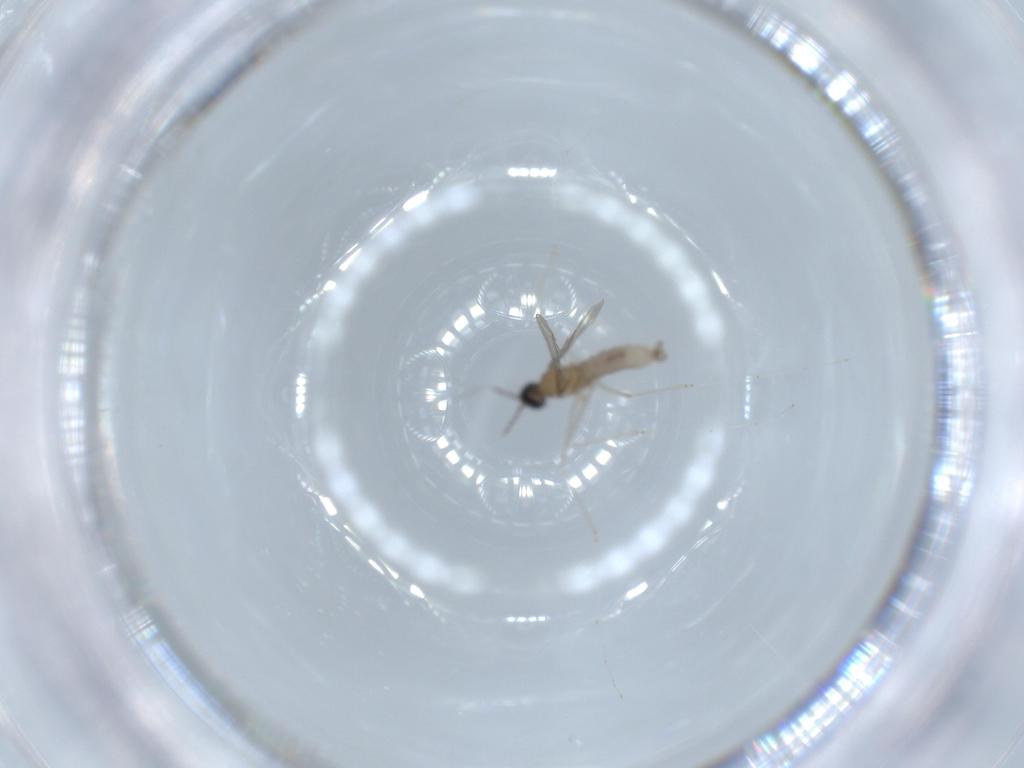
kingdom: Animalia
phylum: Arthropoda
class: Insecta
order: Diptera
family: Cecidomyiidae
